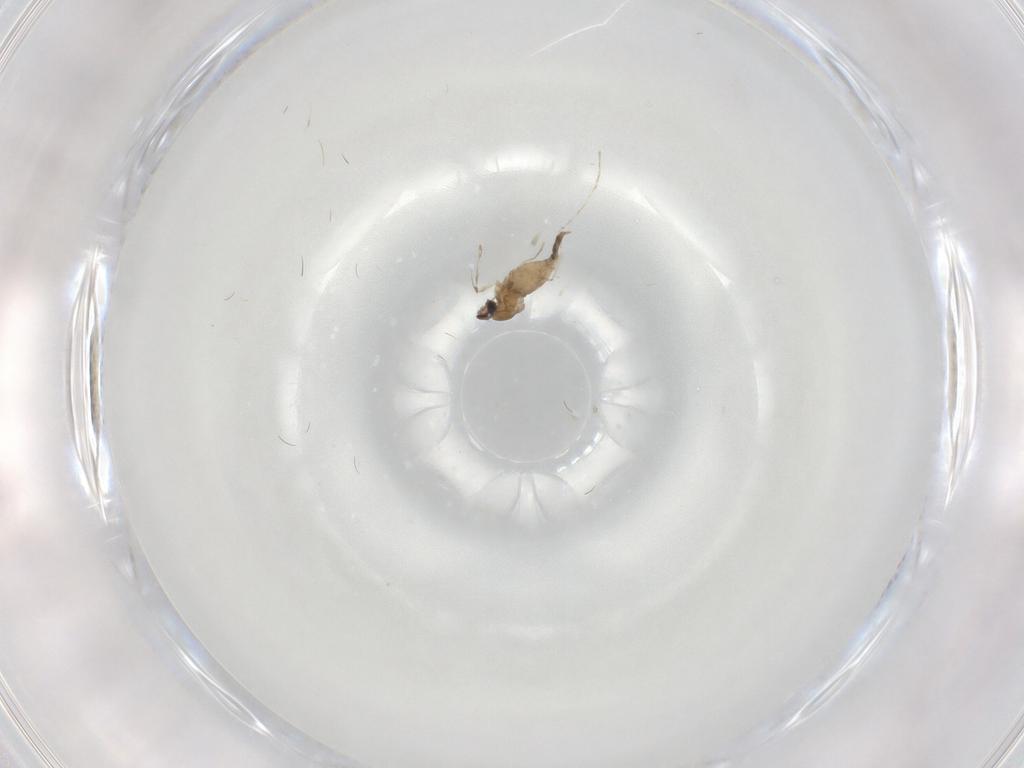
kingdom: Animalia
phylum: Arthropoda
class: Insecta
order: Diptera
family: Cecidomyiidae
